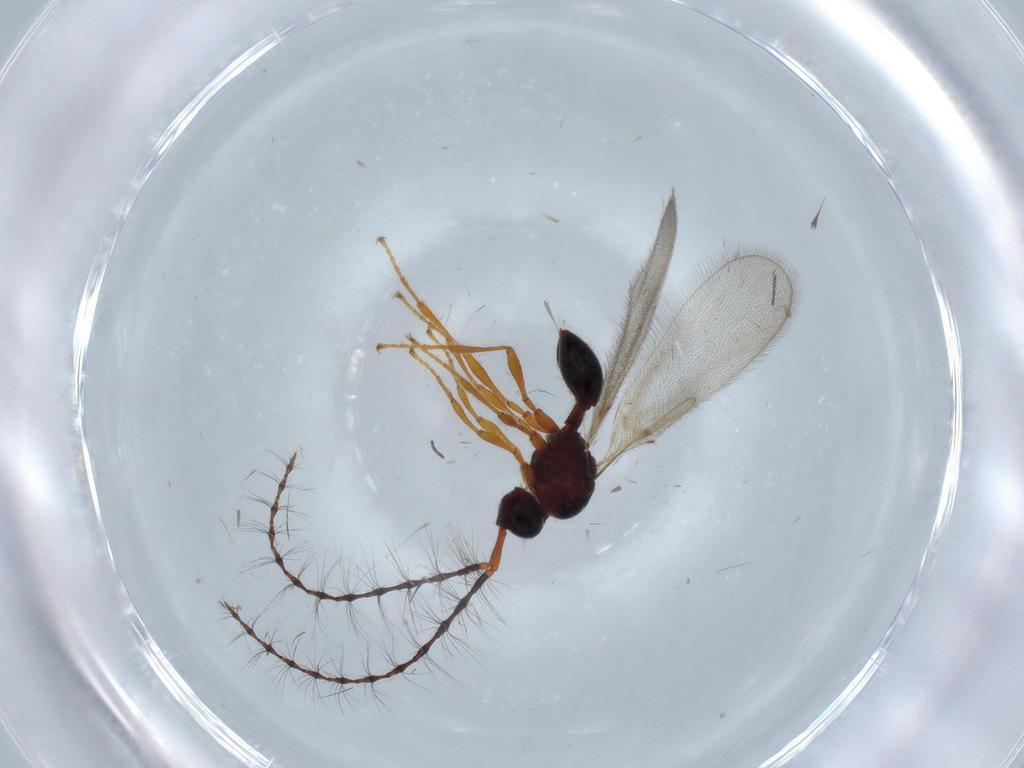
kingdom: Animalia
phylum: Arthropoda
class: Insecta
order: Hymenoptera
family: Diapriidae
